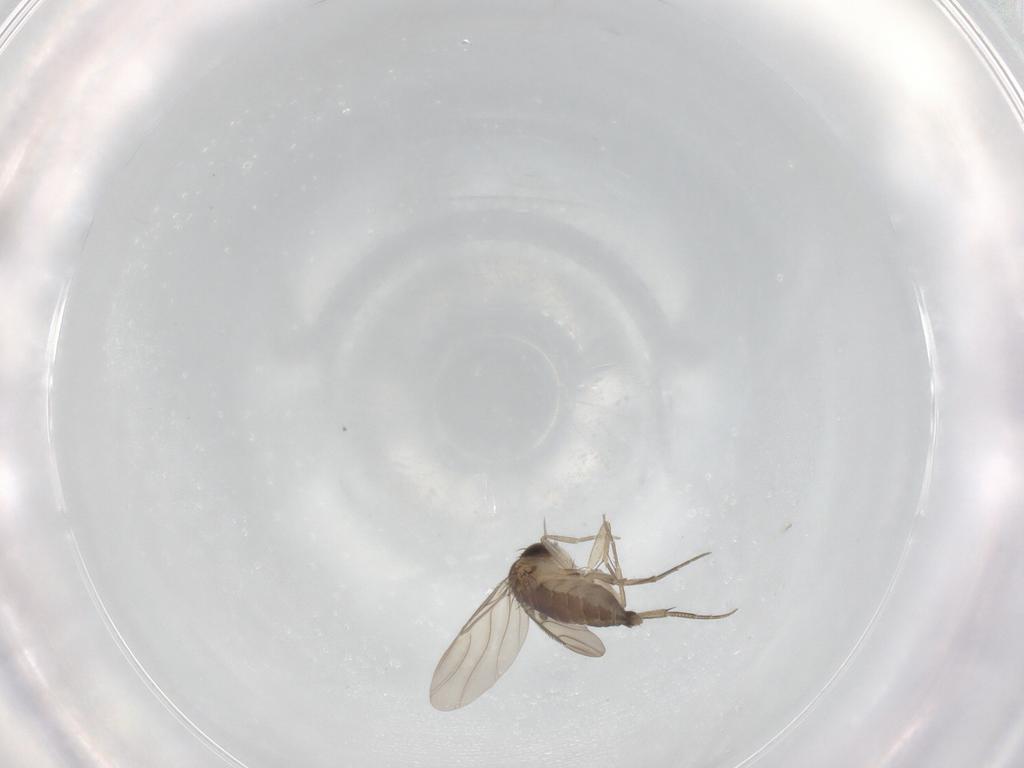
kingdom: Animalia
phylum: Arthropoda
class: Insecta
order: Diptera
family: Phoridae
